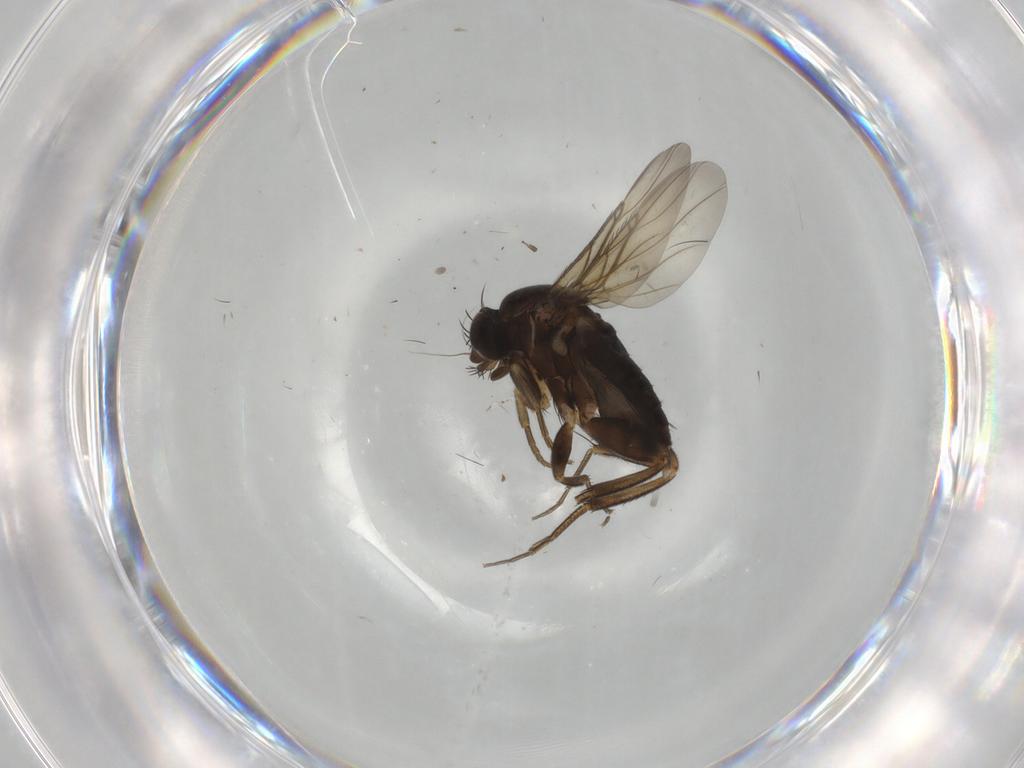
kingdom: Animalia
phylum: Arthropoda
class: Insecta
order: Diptera
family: Phoridae
